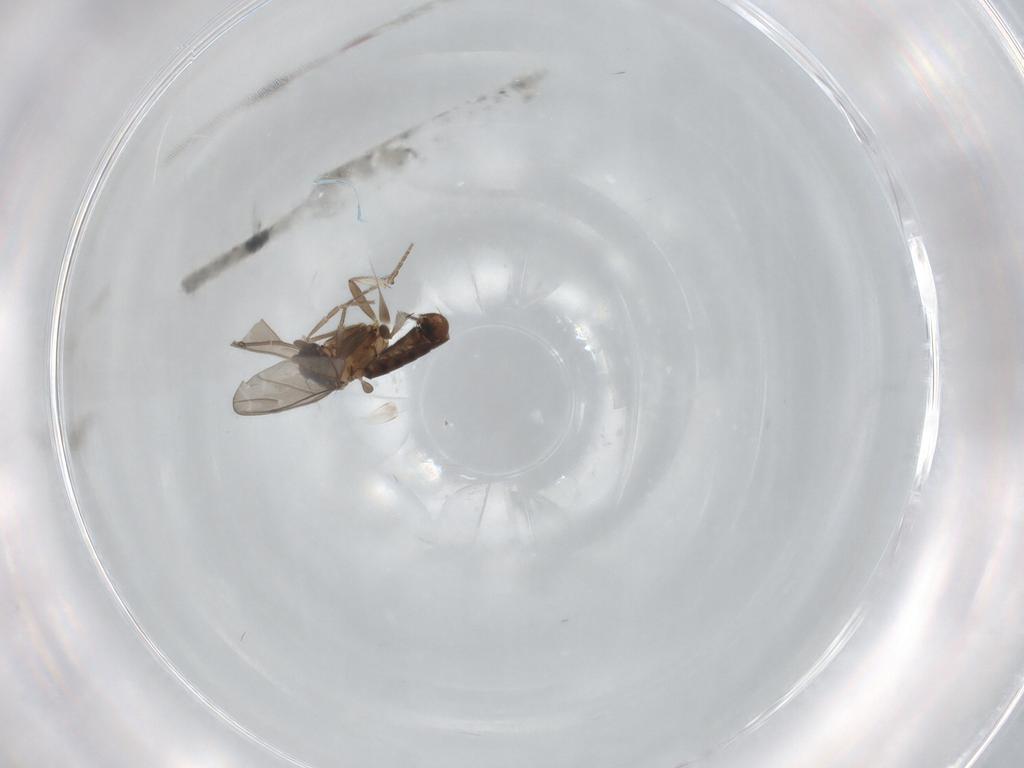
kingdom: Animalia
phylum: Arthropoda
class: Insecta
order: Diptera
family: Phoridae
